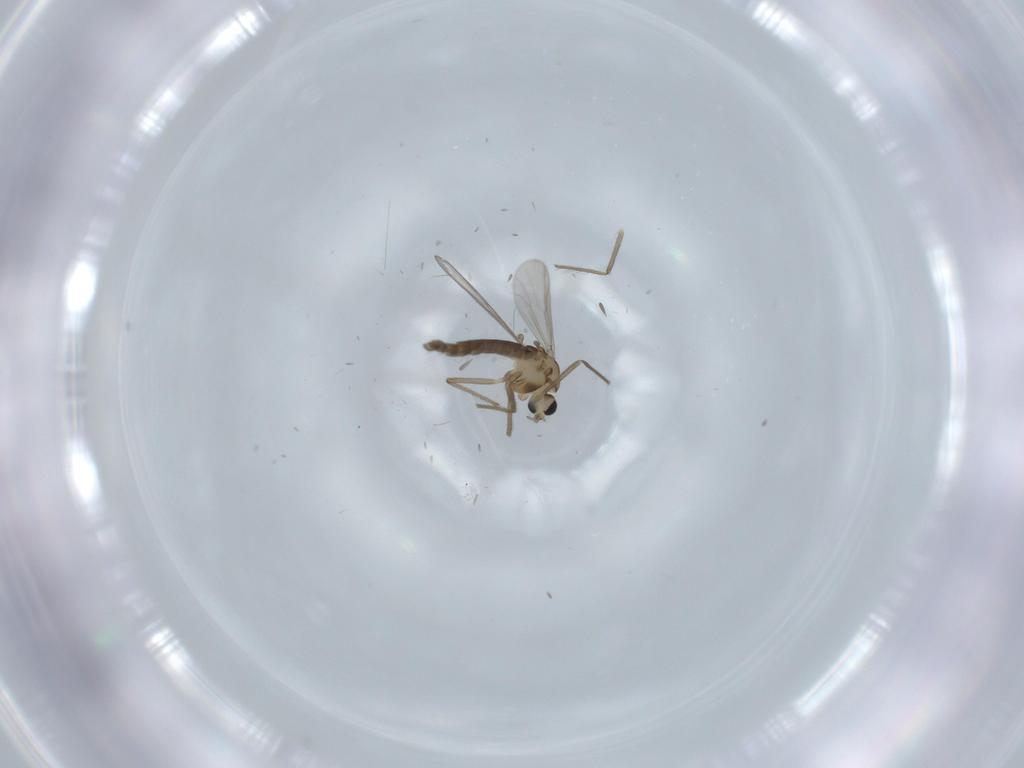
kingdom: Animalia
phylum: Arthropoda
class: Insecta
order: Diptera
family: Chironomidae
